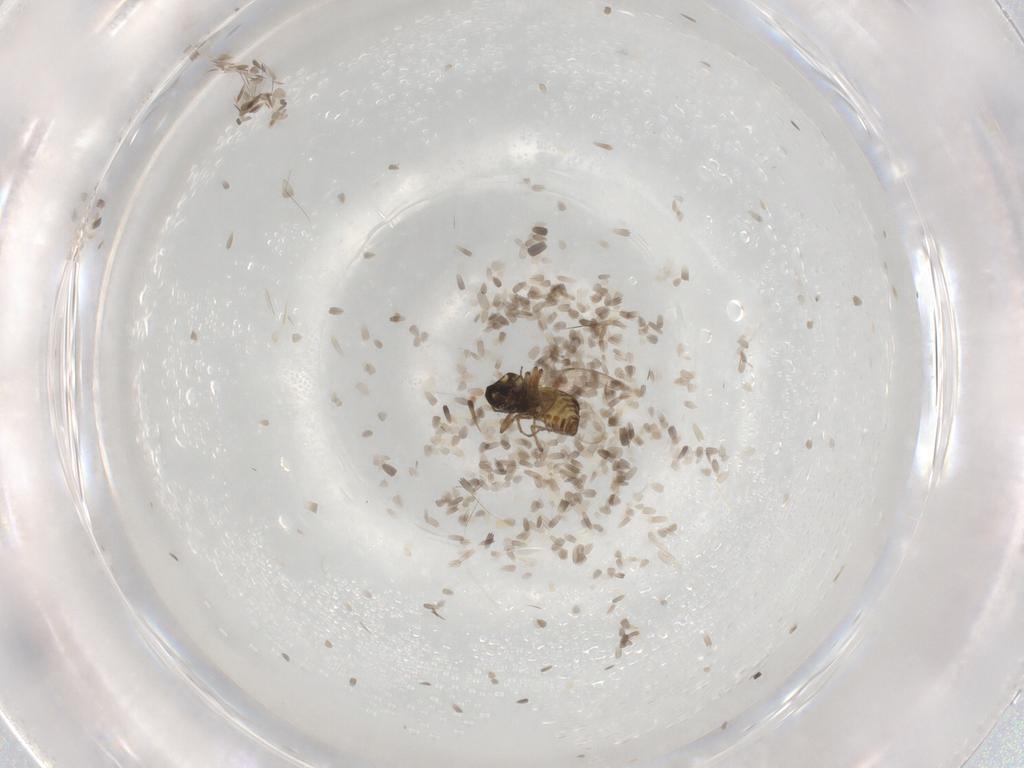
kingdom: Animalia
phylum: Arthropoda
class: Insecta
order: Diptera
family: Ceratopogonidae
